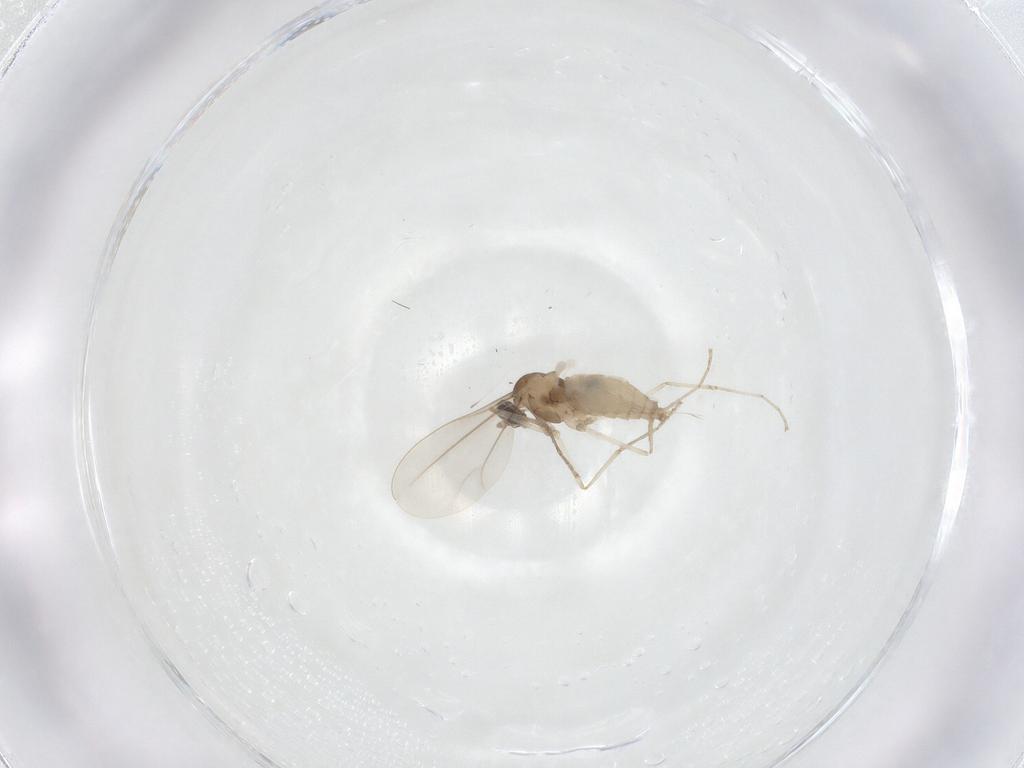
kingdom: Animalia
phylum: Arthropoda
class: Insecta
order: Diptera
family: Cecidomyiidae
